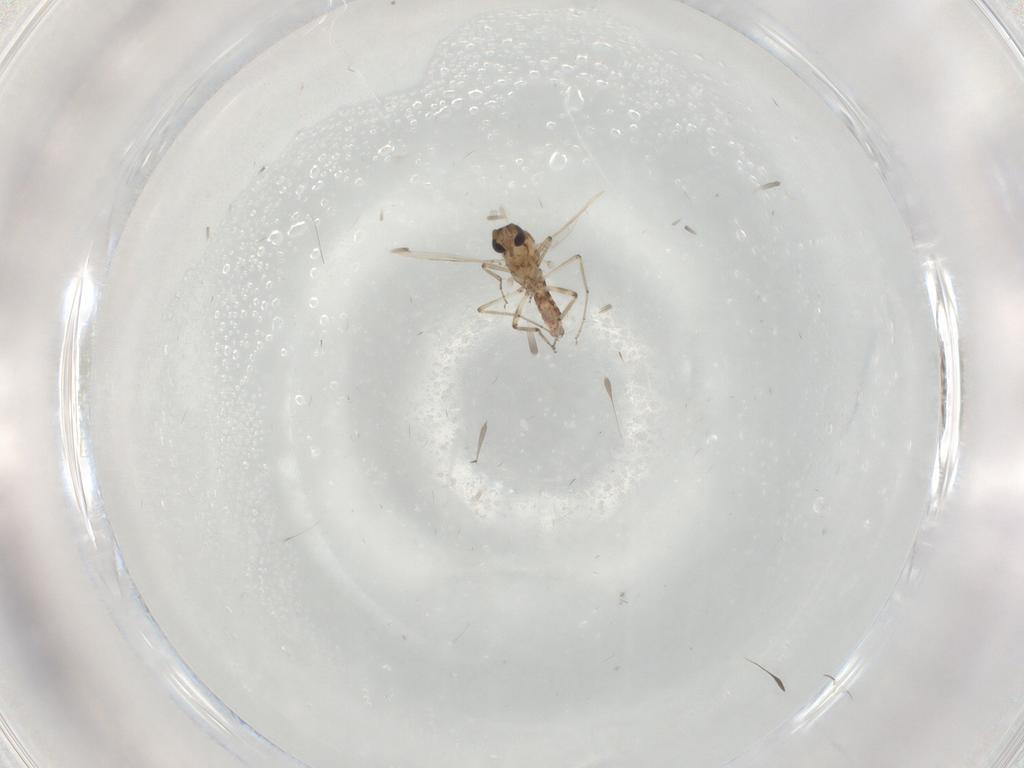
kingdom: Animalia
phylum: Arthropoda
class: Insecta
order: Diptera
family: Ceratopogonidae
